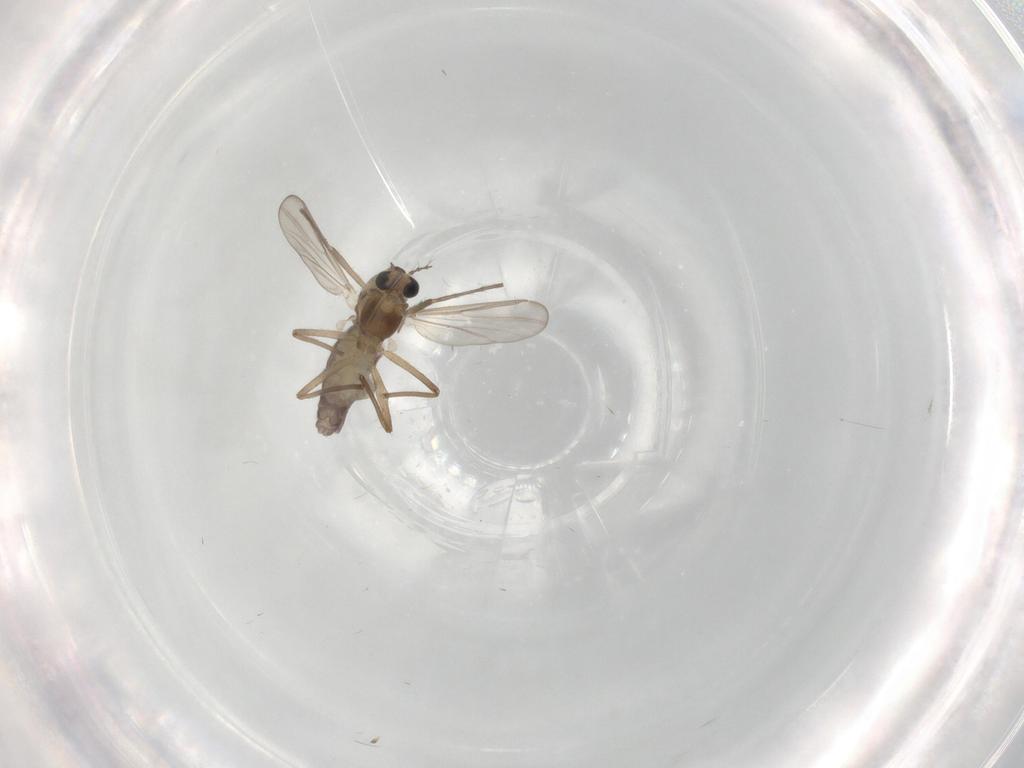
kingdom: Animalia
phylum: Arthropoda
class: Insecta
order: Diptera
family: Chironomidae
